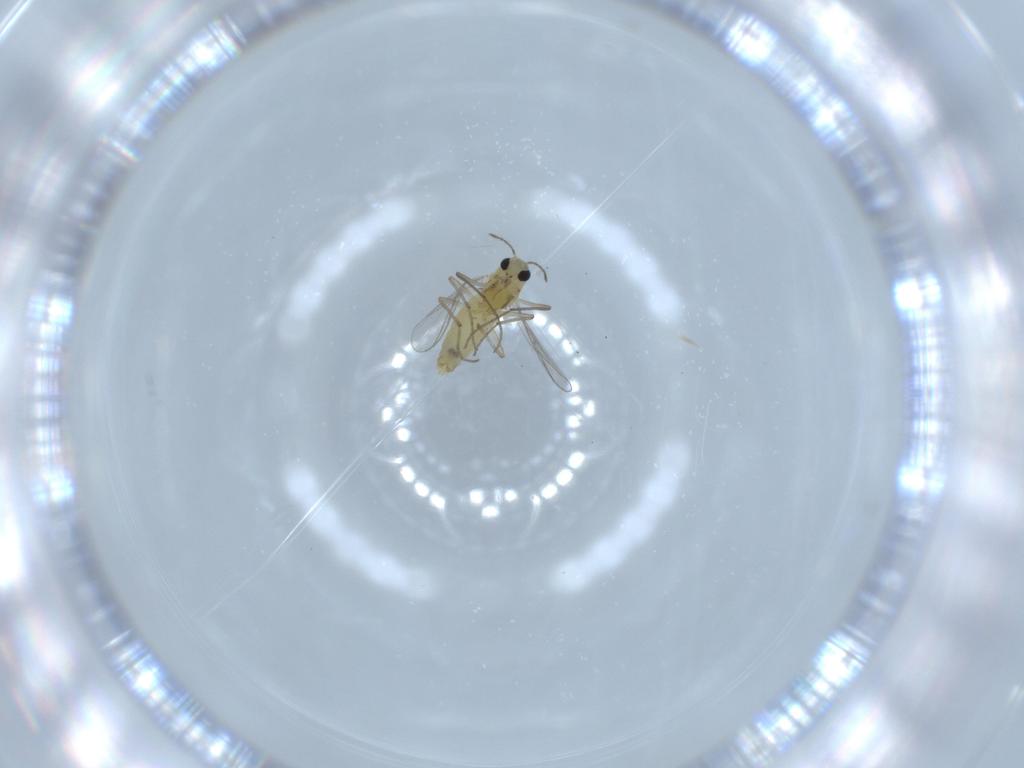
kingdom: Animalia
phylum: Arthropoda
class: Insecta
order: Diptera
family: Chironomidae
